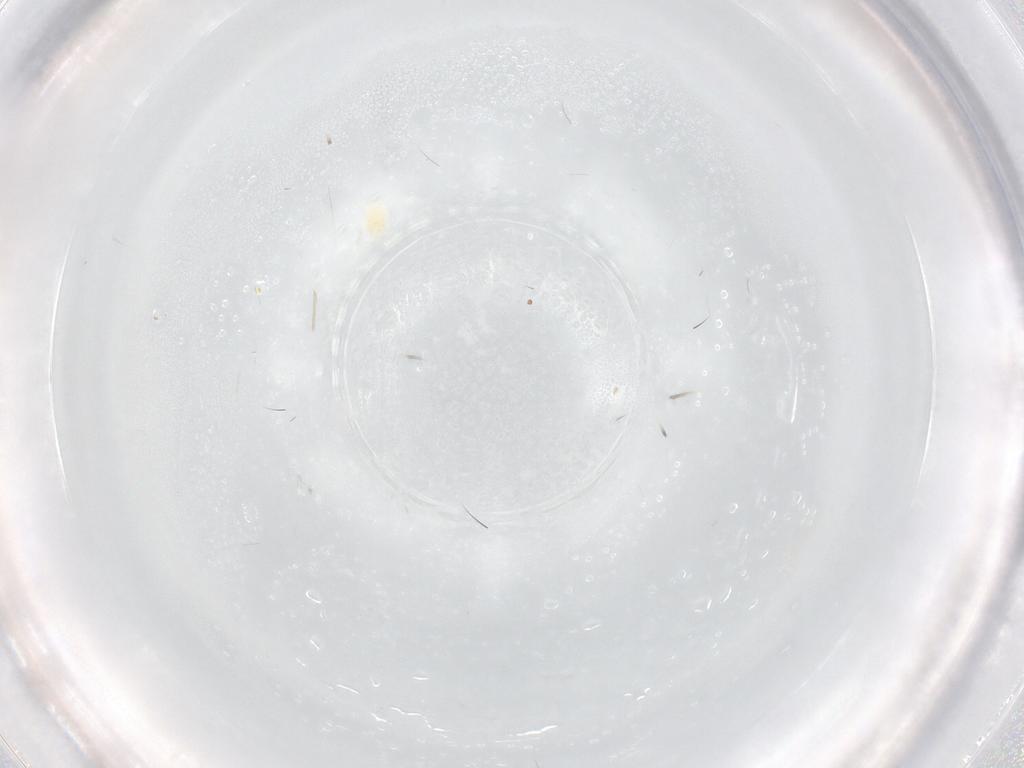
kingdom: Animalia
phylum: Arthropoda
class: Arachnida
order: Trombidiformes
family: Tetranychidae
